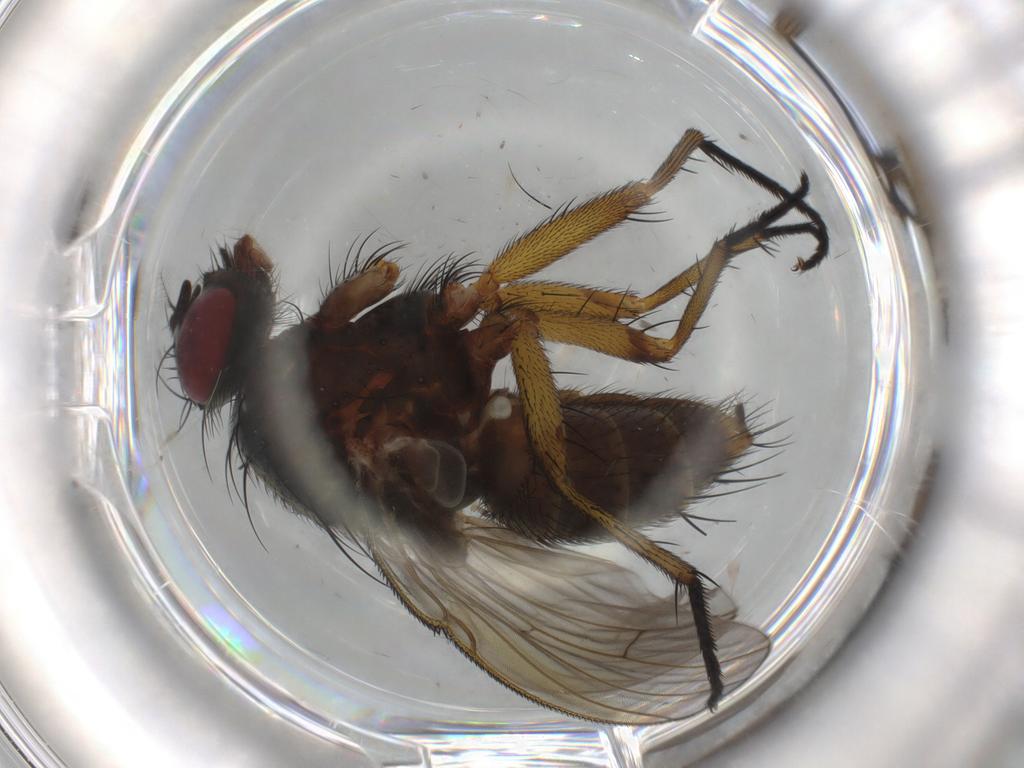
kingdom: Animalia
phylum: Arthropoda
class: Insecta
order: Diptera
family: Muscidae
